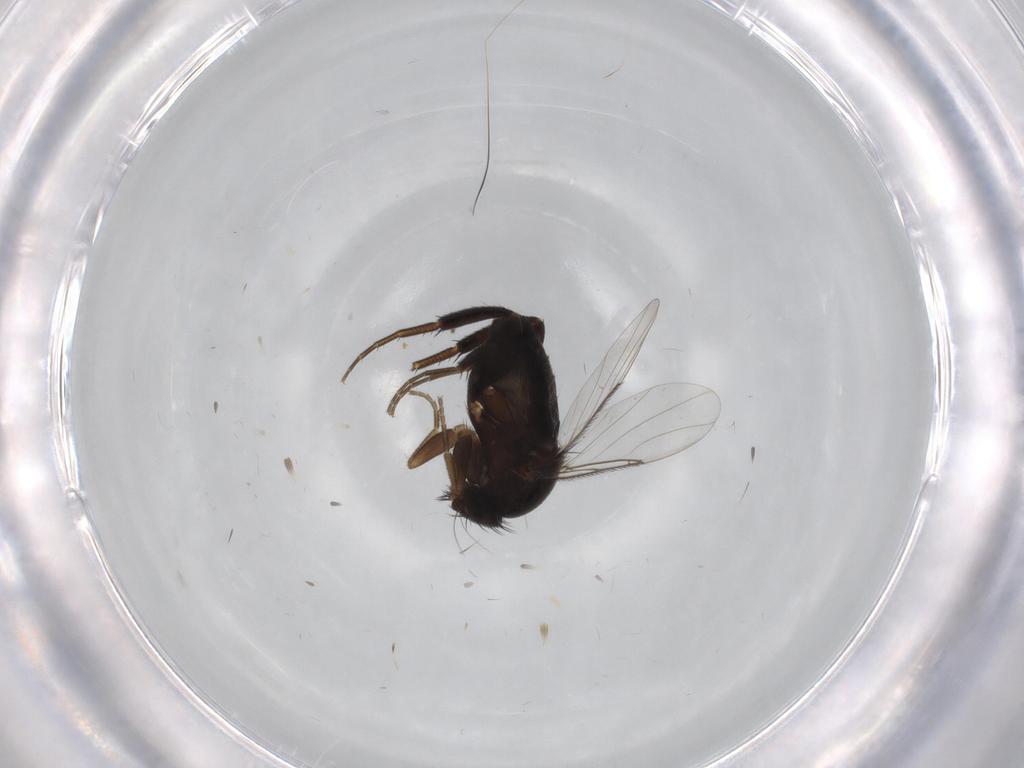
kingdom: Animalia
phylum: Arthropoda
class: Insecta
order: Diptera
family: Phoridae
